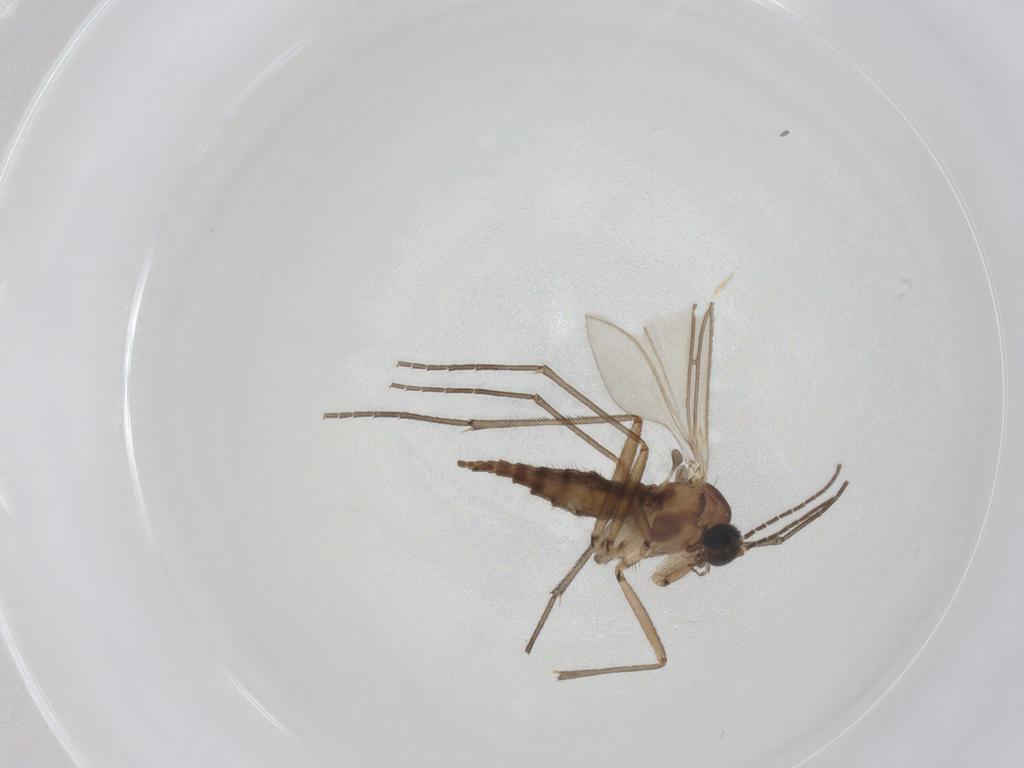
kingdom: Animalia
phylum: Arthropoda
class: Insecta
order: Diptera
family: Sciaridae
